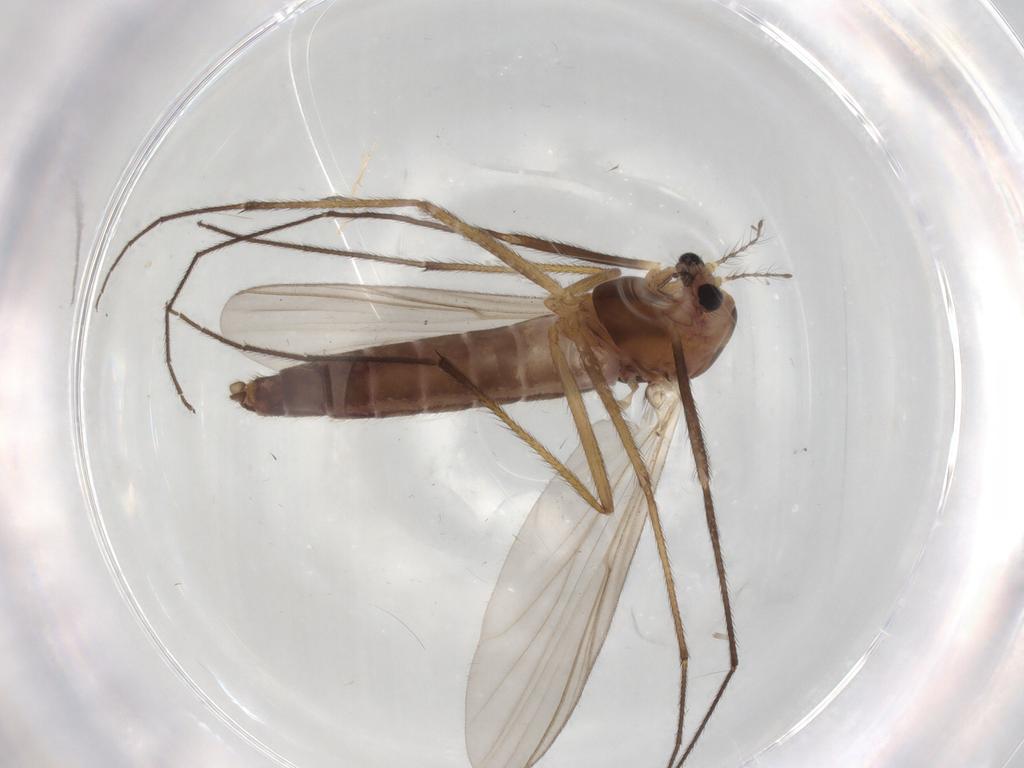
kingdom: Animalia
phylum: Arthropoda
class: Insecta
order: Diptera
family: Chironomidae
